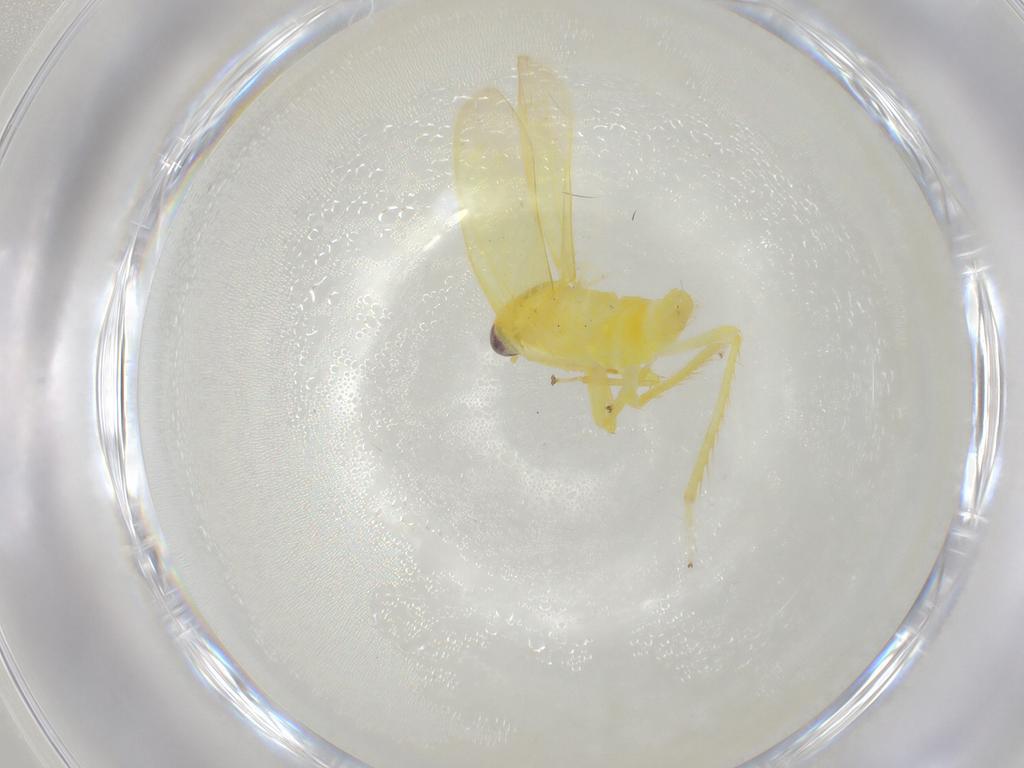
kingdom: Animalia
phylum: Arthropoda
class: Insecta
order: Hemiptera
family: Cicadellidae
